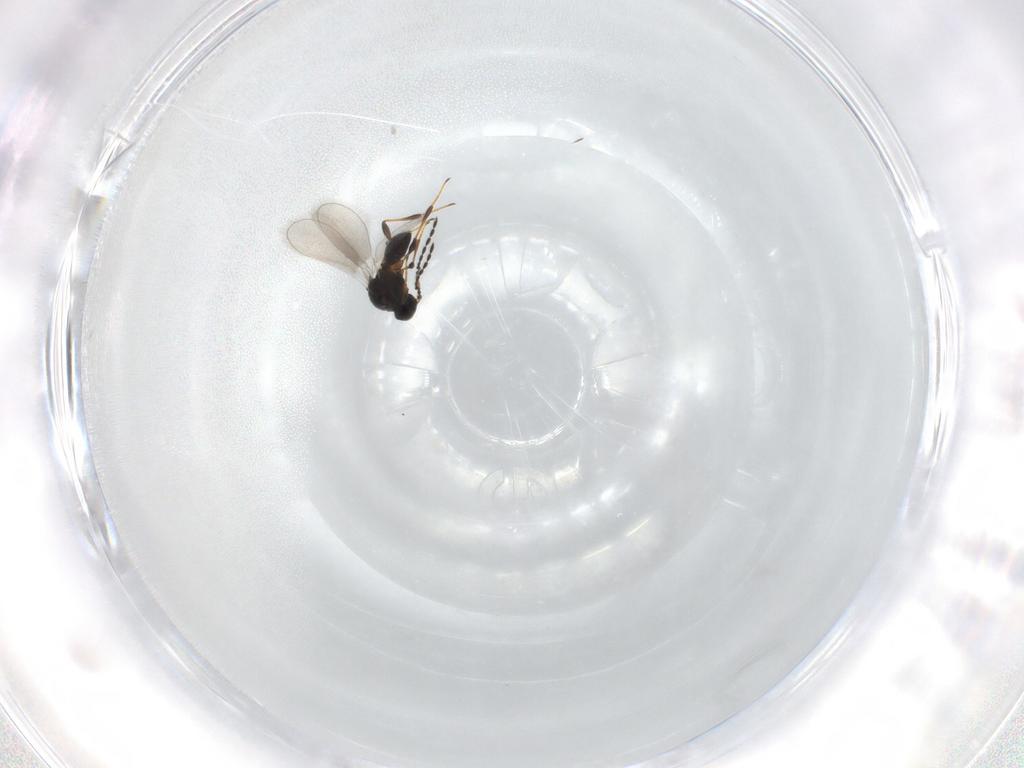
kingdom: Animalia
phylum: Arthropoda
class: Insecta
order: Hymenoptera
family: Platygastridae
